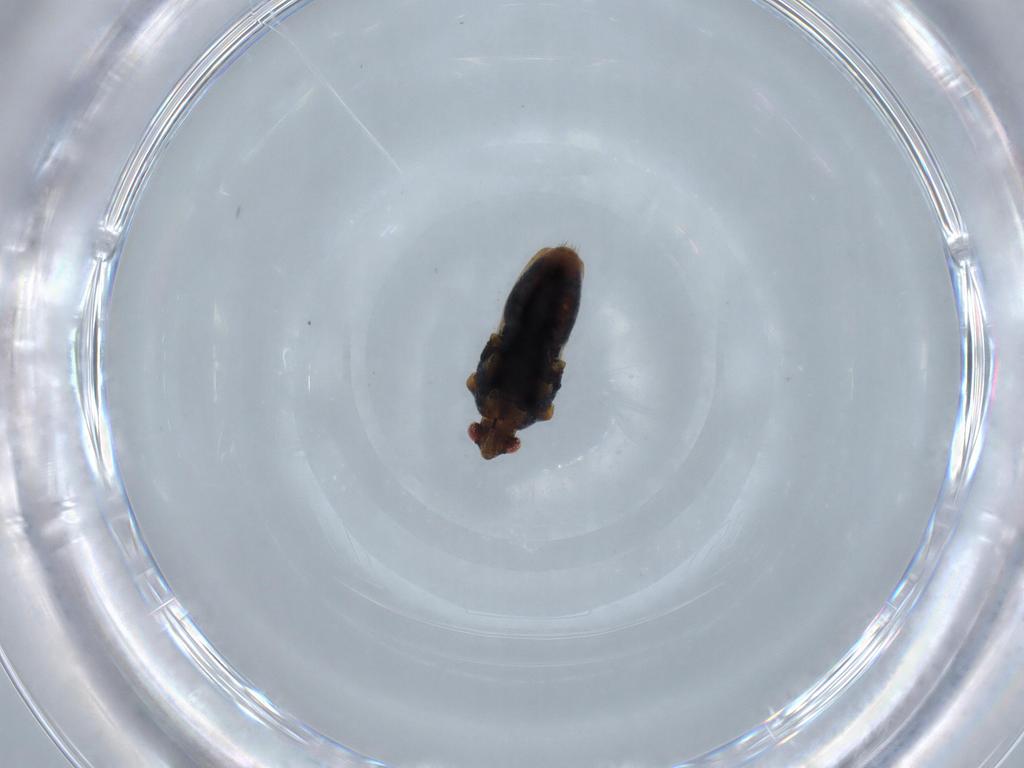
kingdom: Animalia
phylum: Arthropoda
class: Insecta
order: Hemiptera
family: Veliidae
